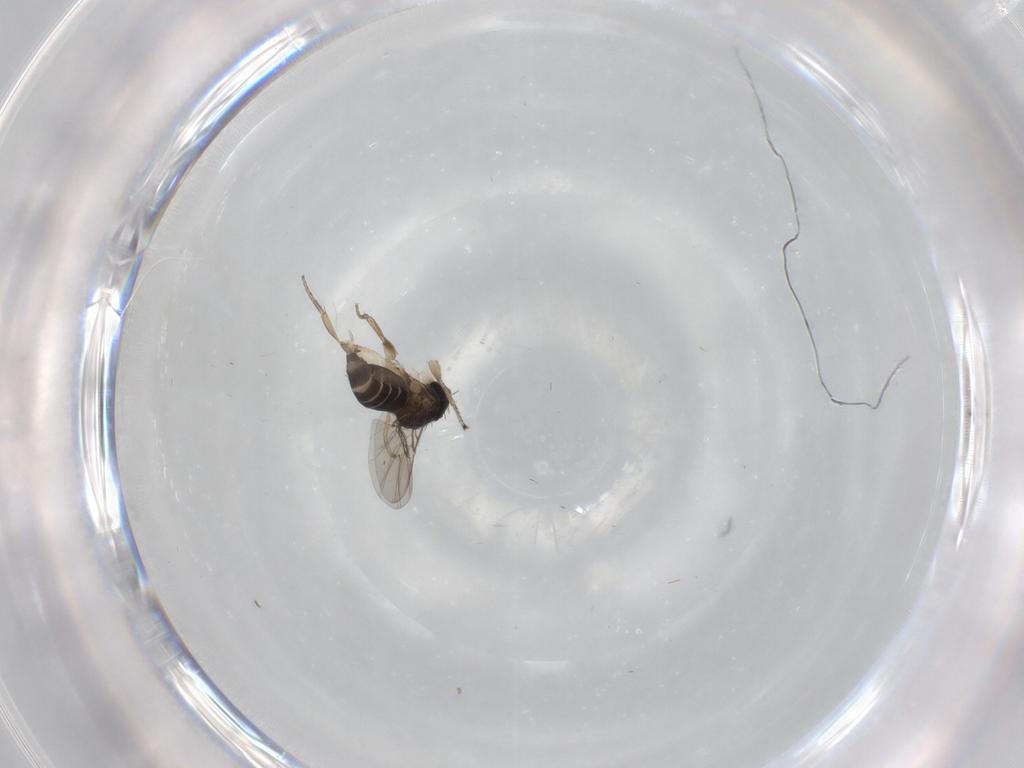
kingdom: Animalia
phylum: Arthropoda
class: Insecta
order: Diptera
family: Phoridae
